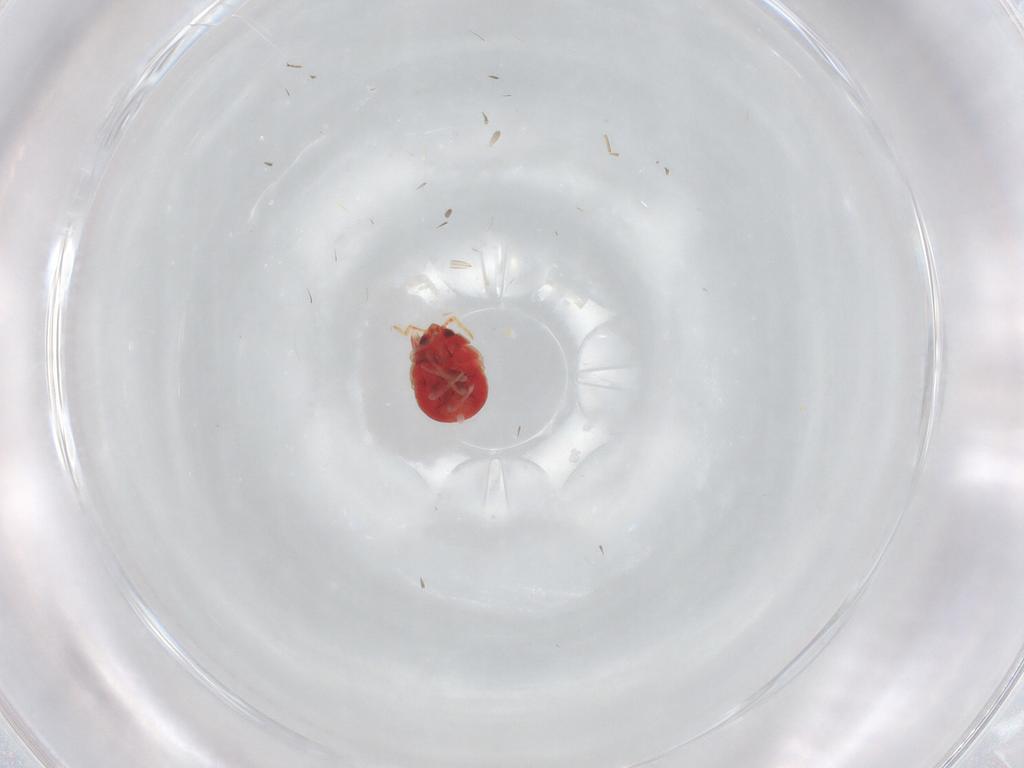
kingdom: Animalia
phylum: Arthropoda
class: Insecta
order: Hemiptera
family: Anthocoridae
